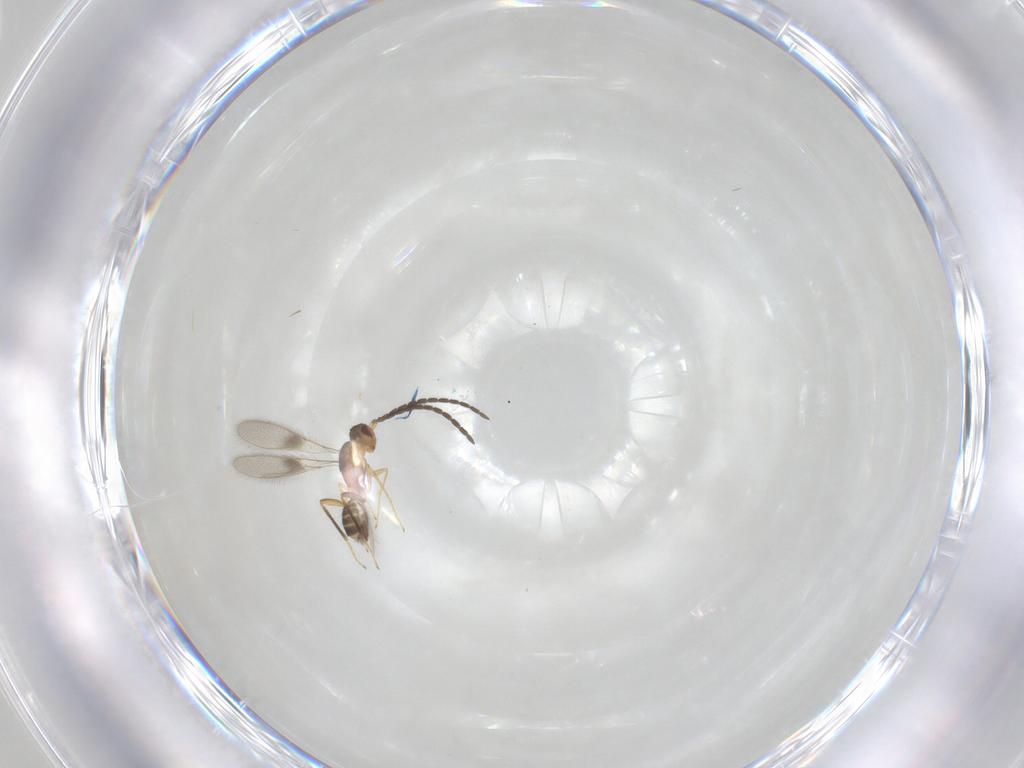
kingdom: Animalia
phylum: Arthropoda
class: Insecta
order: Hymenoptera
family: Mymaridae
